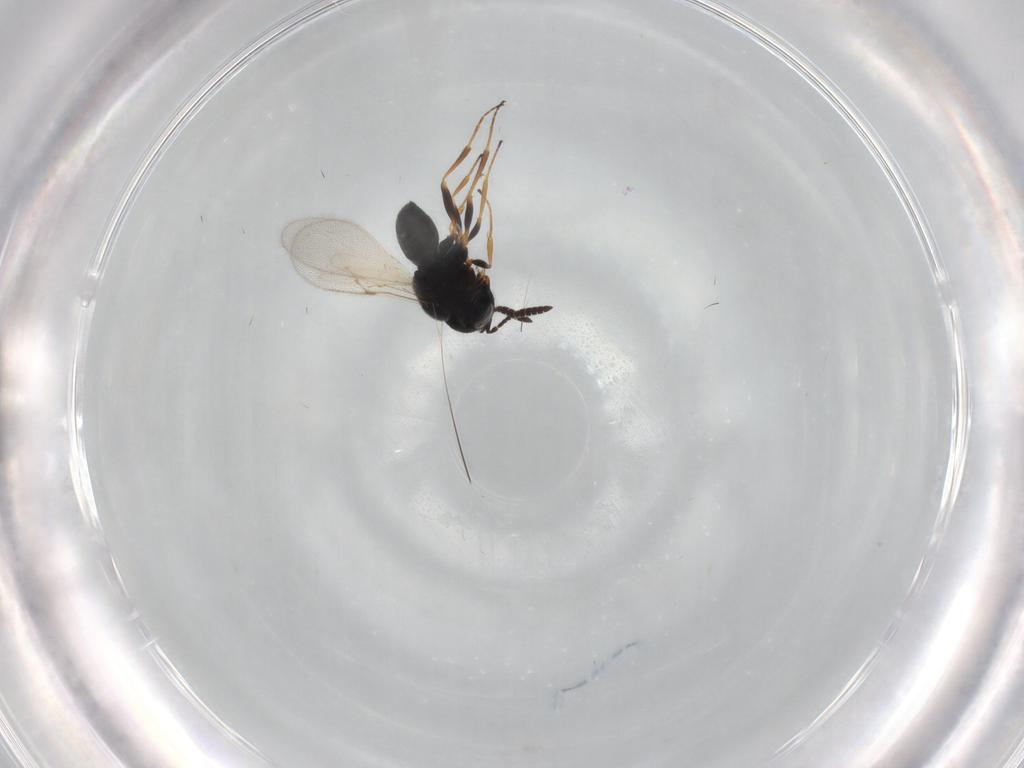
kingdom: Animalia
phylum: Arthropoda
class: Insecta
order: Hymenoptera
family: Scelionidae
